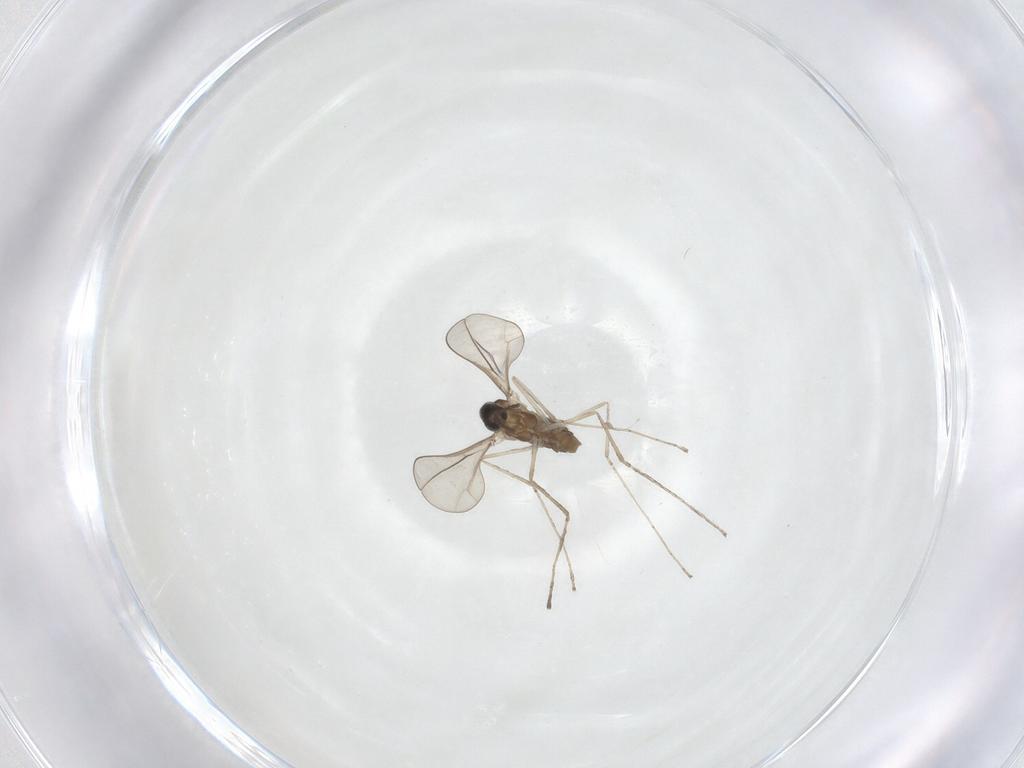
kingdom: Animalia
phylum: Arthropoda
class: Insecta
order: Diptera
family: Cecidomyiidae
